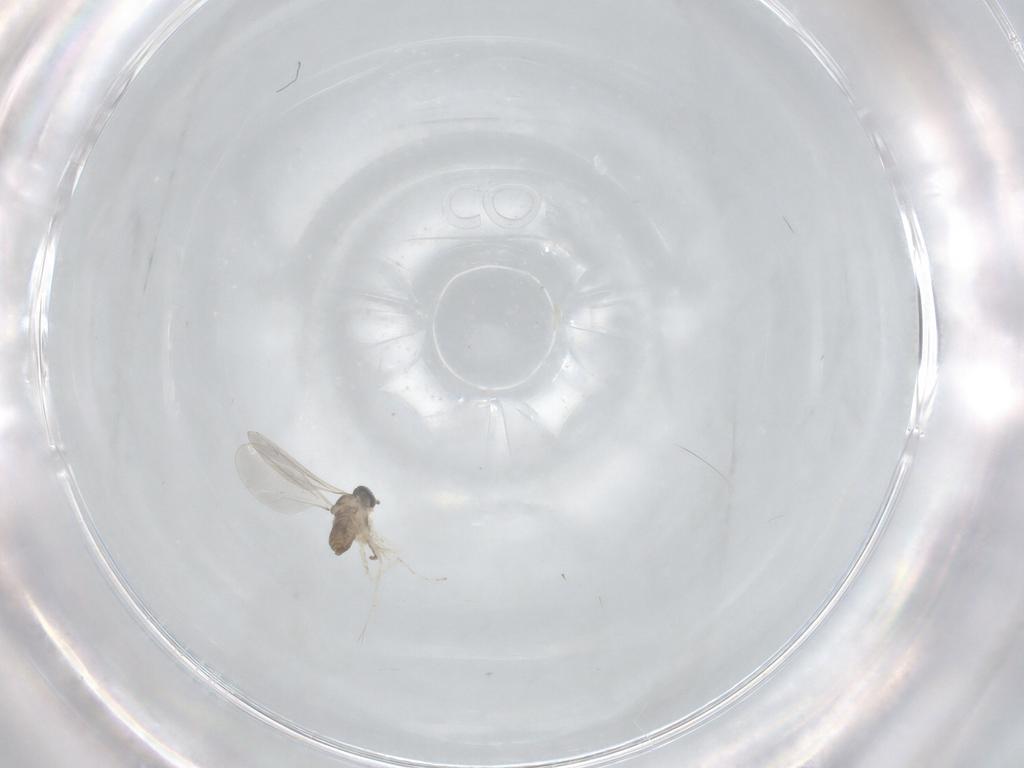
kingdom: Animalia
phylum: Arthropoda
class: Insecta
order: Diptera
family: Cecidomyiidae
